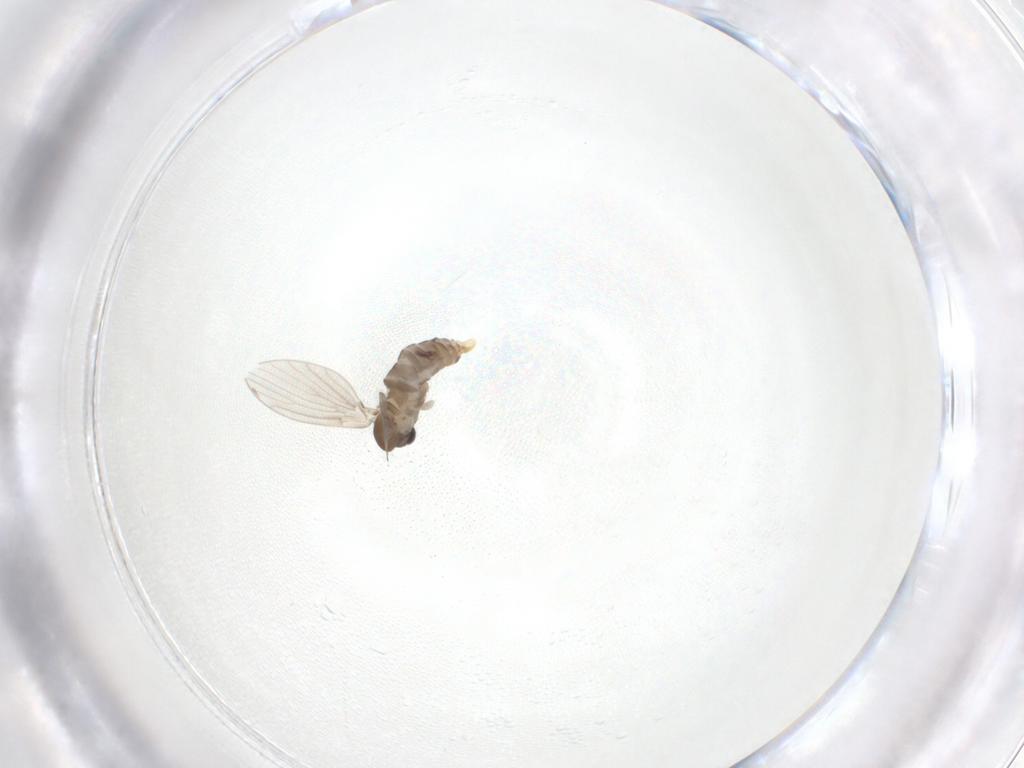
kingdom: Animalia
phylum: Arthropoda
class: Insecta
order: Diptera
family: Psychodidae
